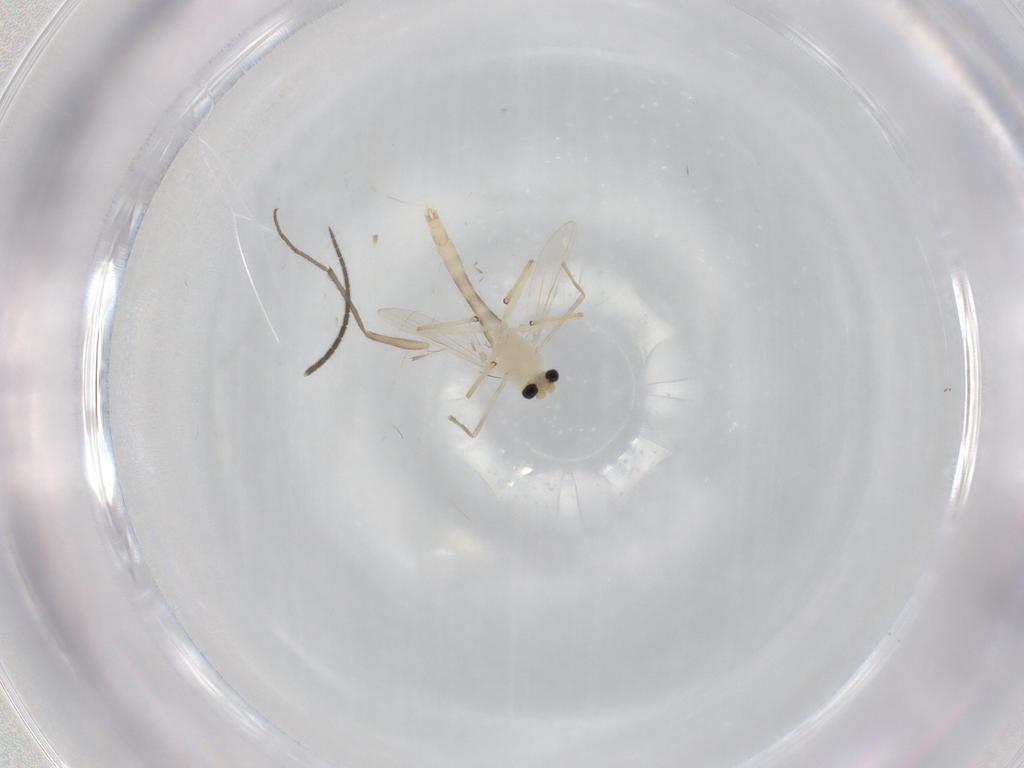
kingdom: Animalia
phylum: Arthropoda
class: Insecta
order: Diptera
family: Chironomidae
